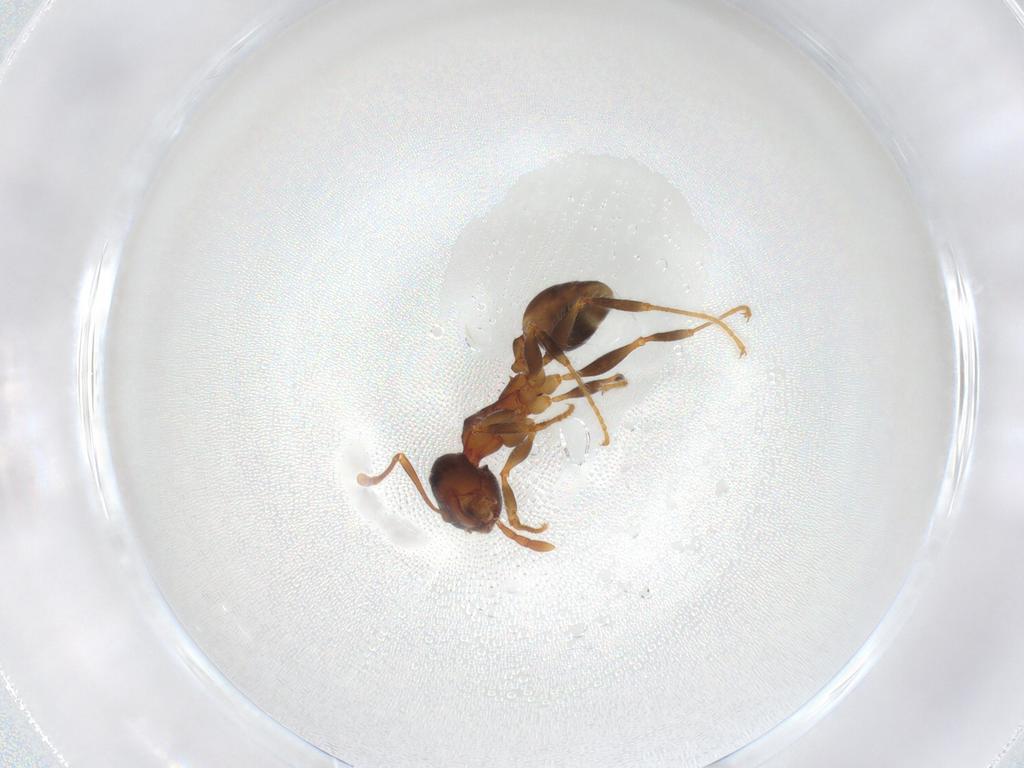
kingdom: Animalia
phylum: Arthropoda
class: Insecta
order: Hymenoptera
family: Formicidae
